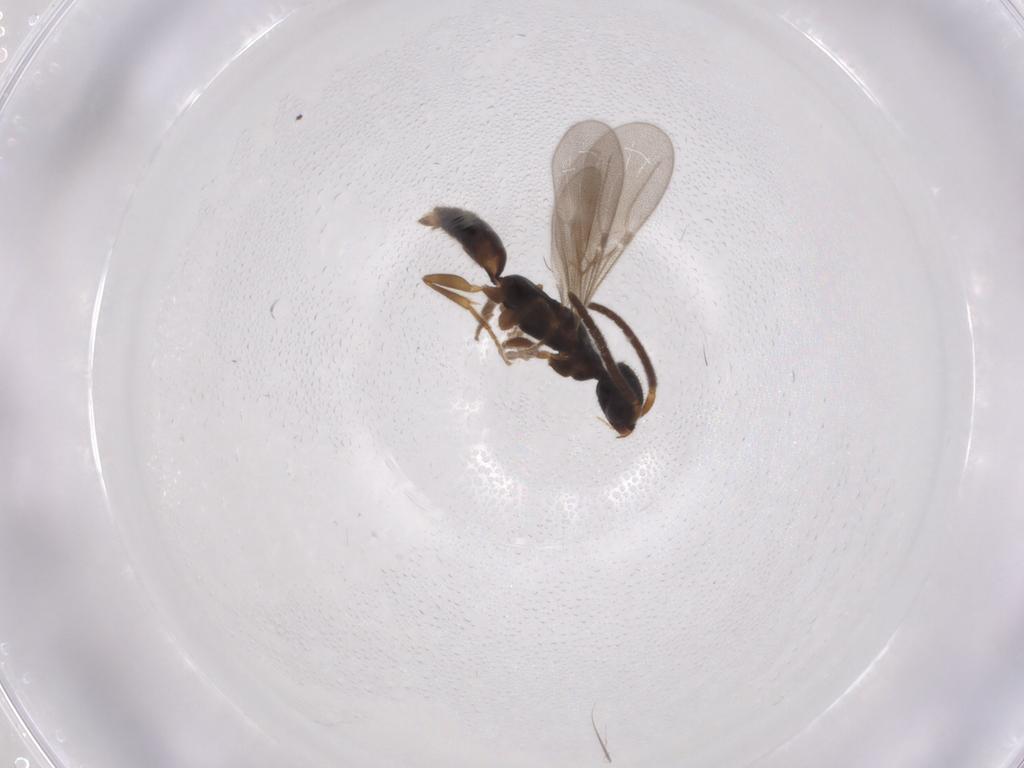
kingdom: Animalia
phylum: Arthropoda
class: Insecta
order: Hymenoptera
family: Bethylidae
